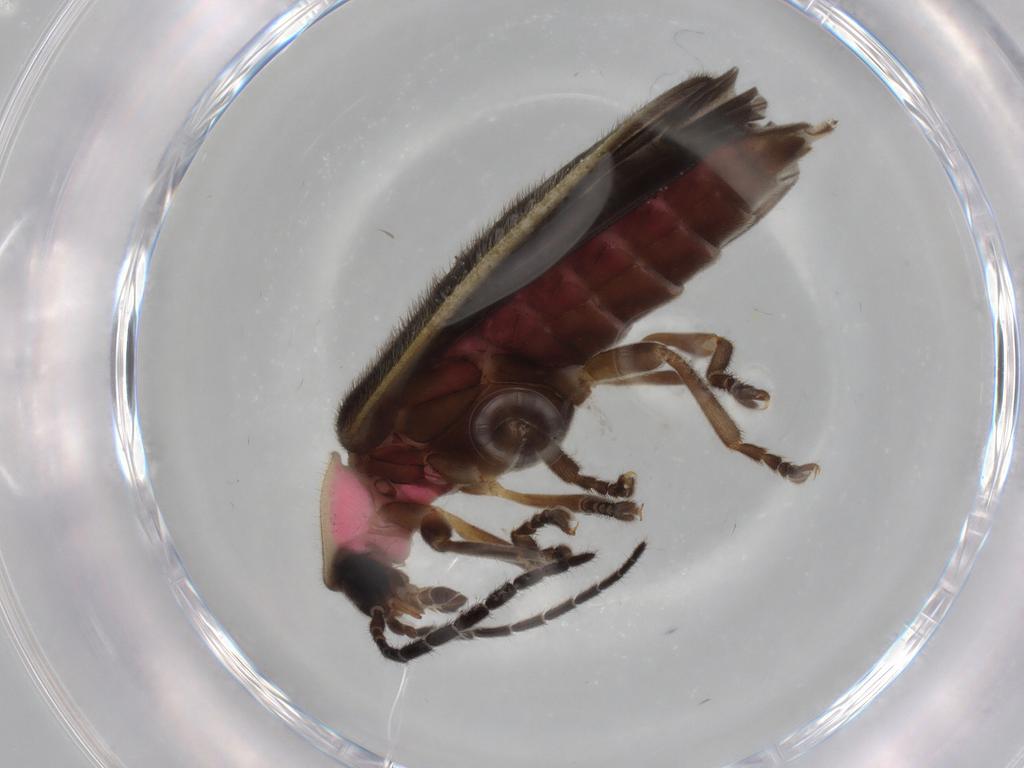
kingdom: Animalia
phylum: Arthropoda
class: Insecta
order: Coleoptera
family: Lampyridae
